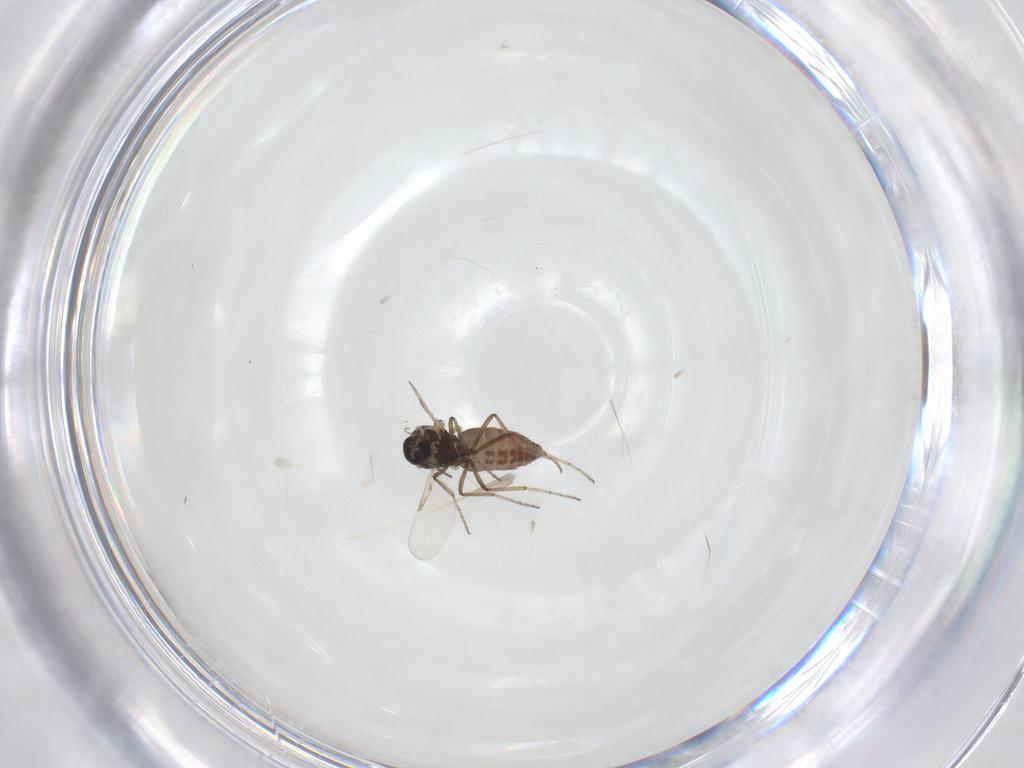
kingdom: Animalia
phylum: Arthropoda
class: Insecta
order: Diptera
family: Ceratopogonidae
